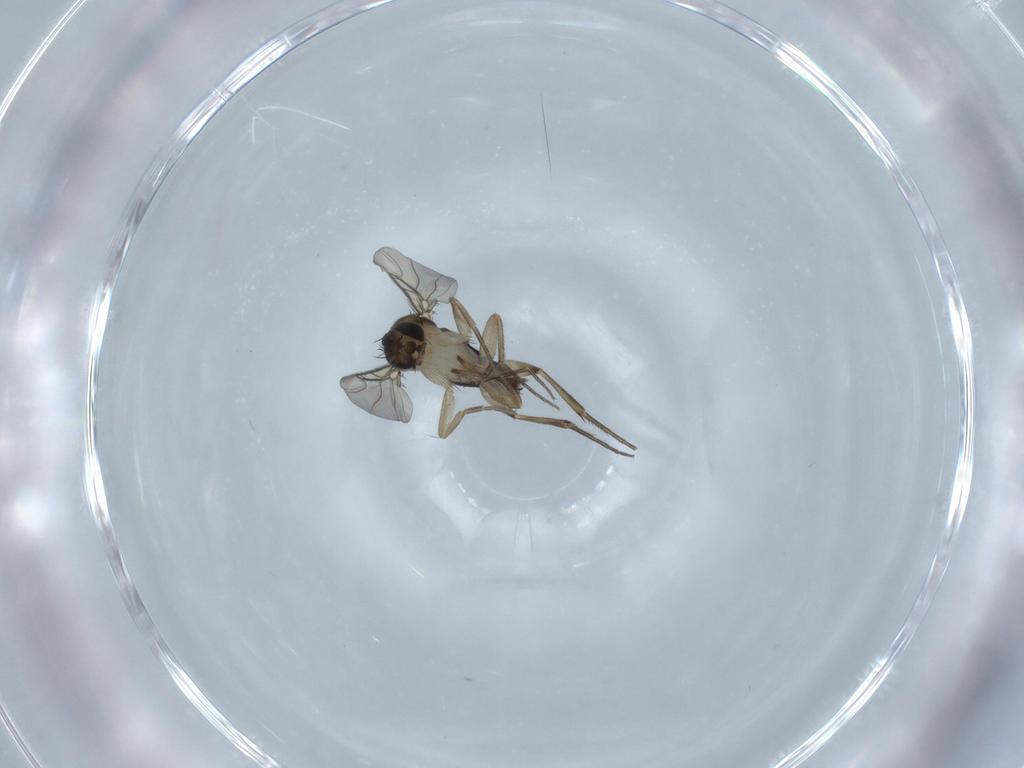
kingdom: Animalia
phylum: Arthropoda
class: Insecta
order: Diptera
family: Phoridae
